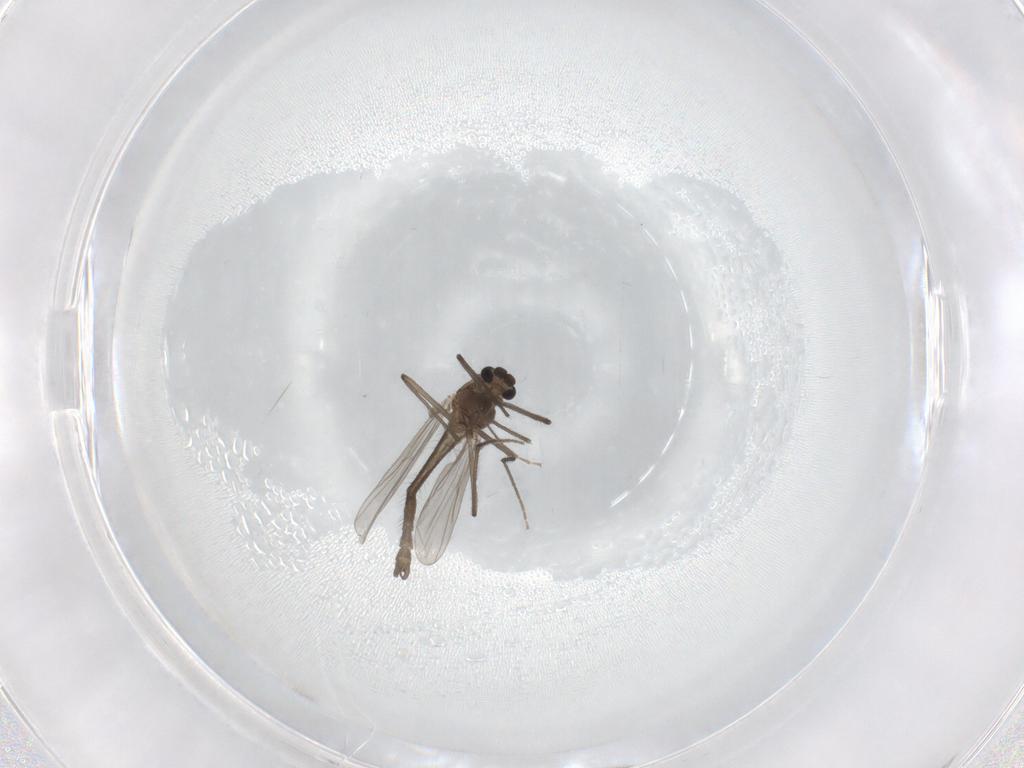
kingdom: Animalia
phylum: Arthropoda
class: Insecta
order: Diptera
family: Chironomidae
